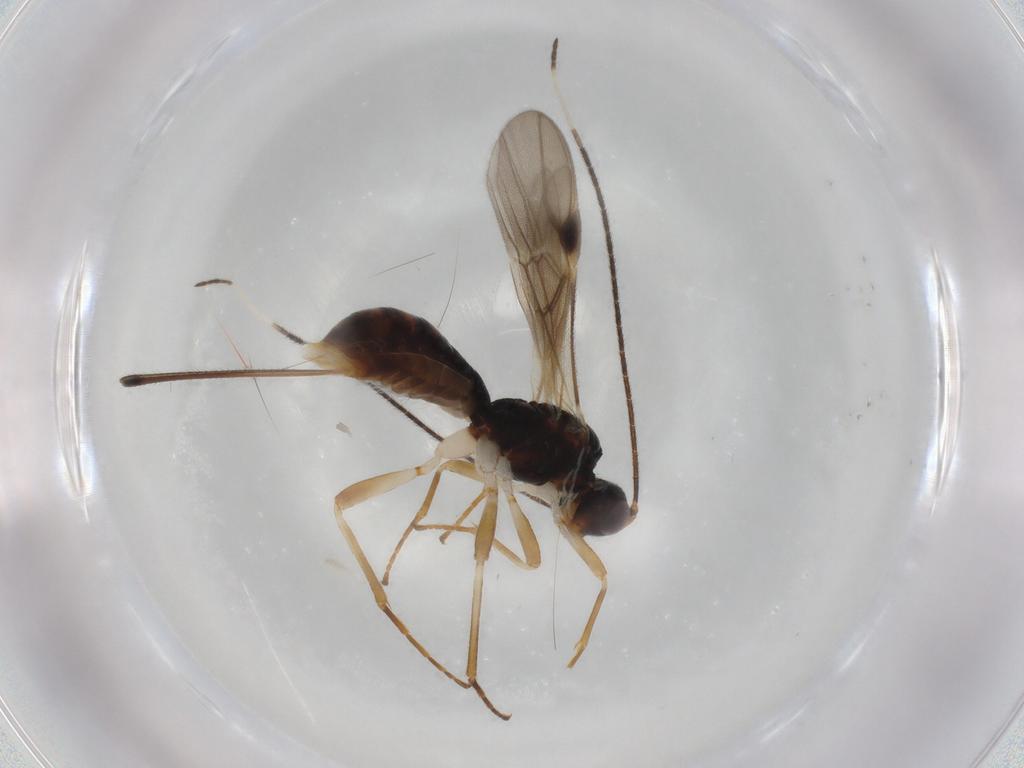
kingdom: Animalia
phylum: Arthropoda
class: Insecta
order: Hymenoptera
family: Braconidae
